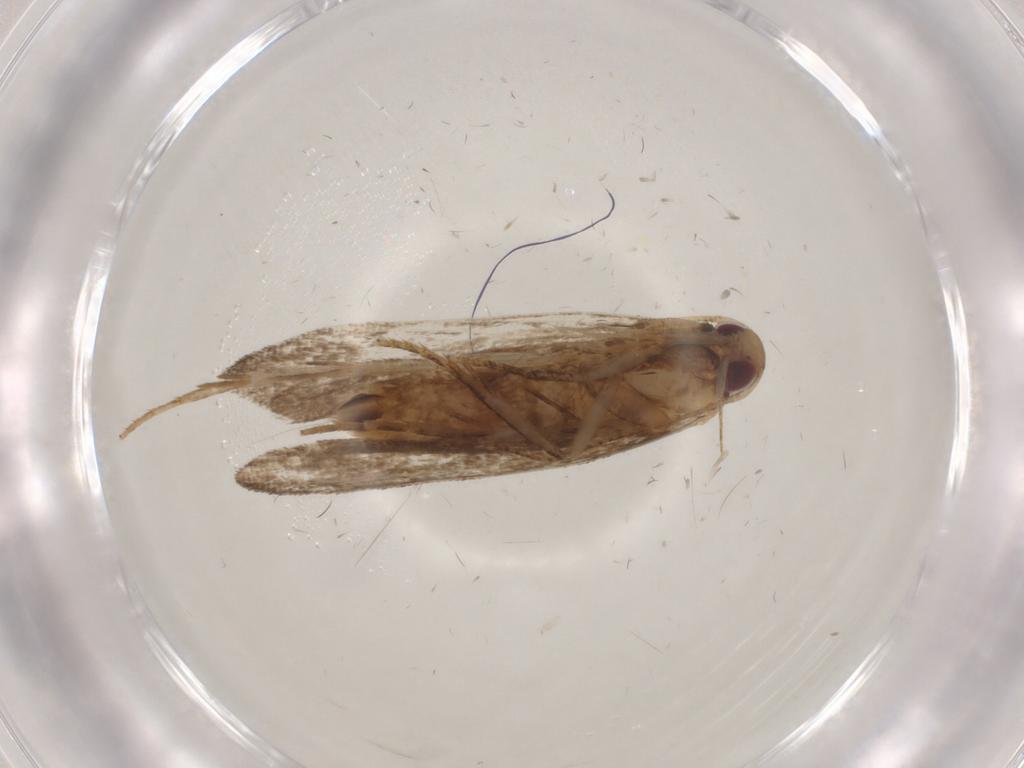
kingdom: Animalia
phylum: Arthropoda
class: Insecta
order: Lepidoptera
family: Gelechiidae
